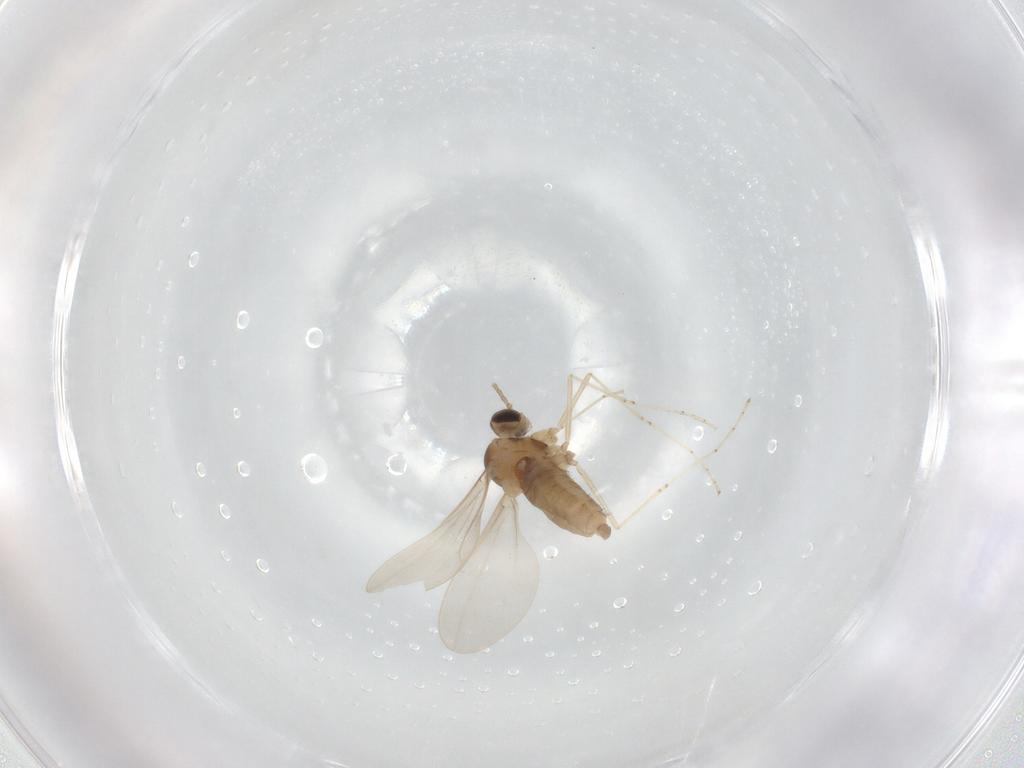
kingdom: Animalia
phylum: Arthropoda
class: Insecta
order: Diptera
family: Cecidomyiidae
